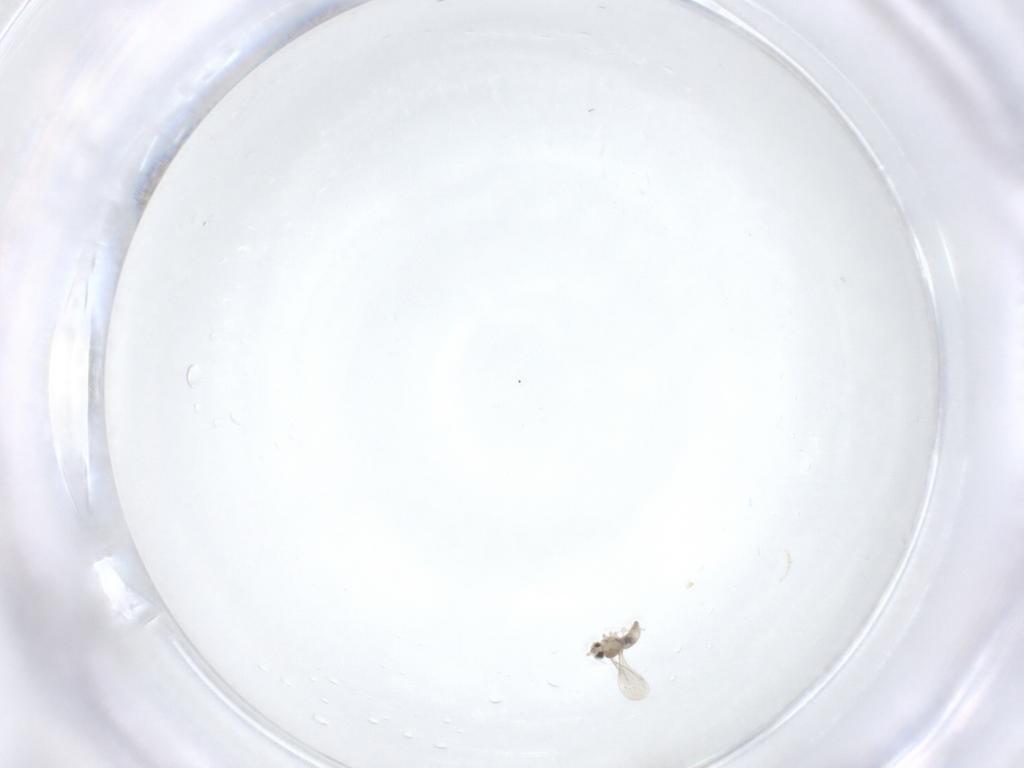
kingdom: Animalia
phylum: Arthropoda
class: Insecta
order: Diptera
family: Cecidomyiidae
